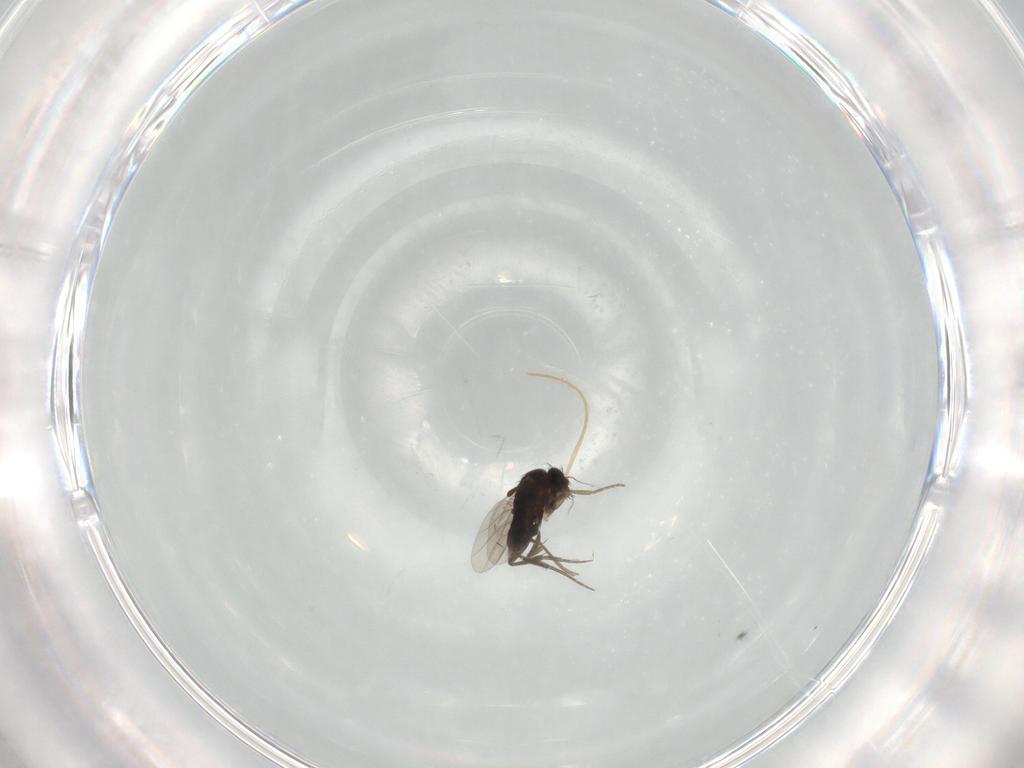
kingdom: Animalia
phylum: Arthropoda
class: Insecta
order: Diptera
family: Phoridae
